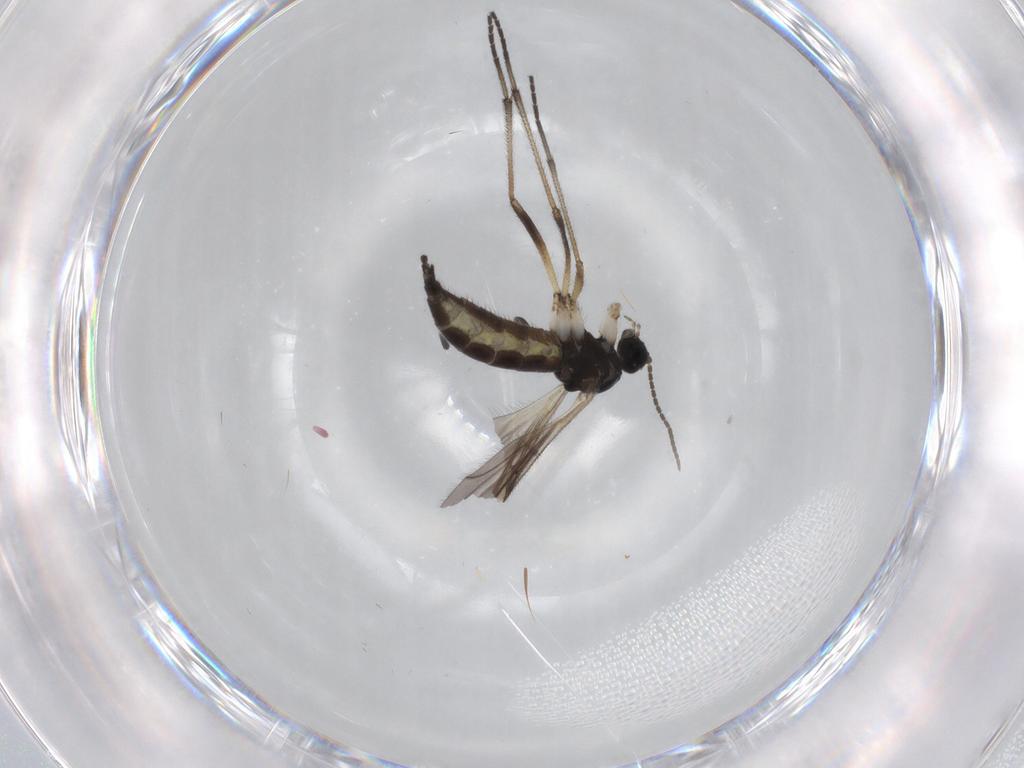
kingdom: Animalia
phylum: Arthropoda
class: Insecta
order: Diptera
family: Sciaridae
